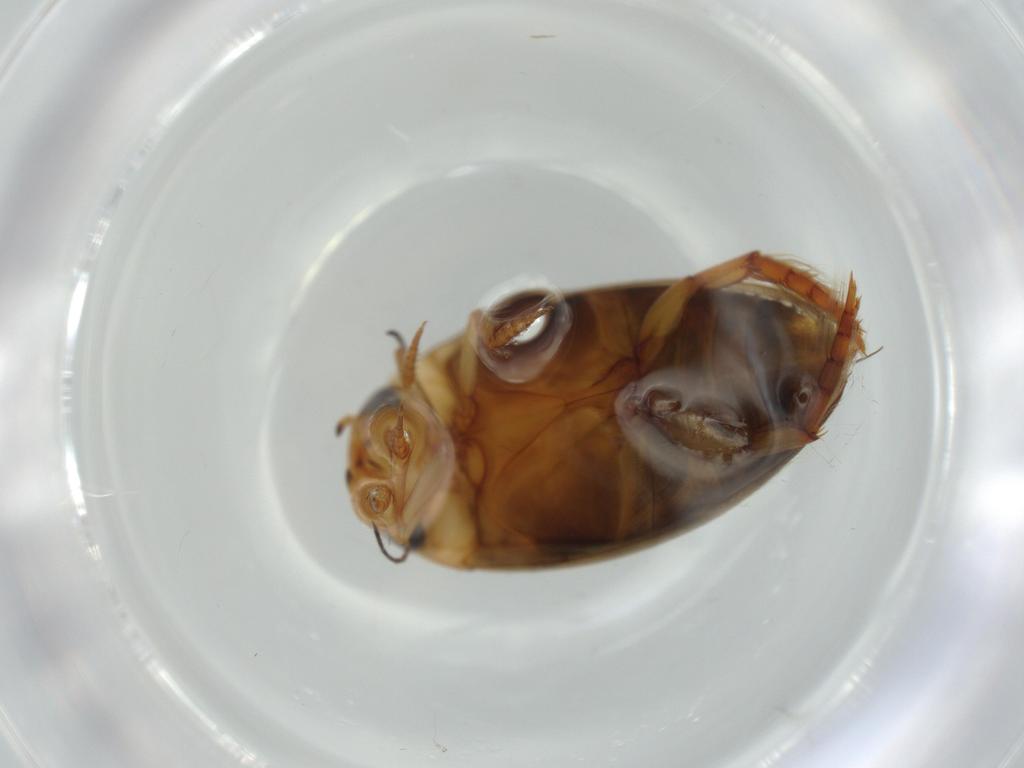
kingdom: Animalia
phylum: Arthropoda
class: Insecta
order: Coleoptera
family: Dytiscidae
